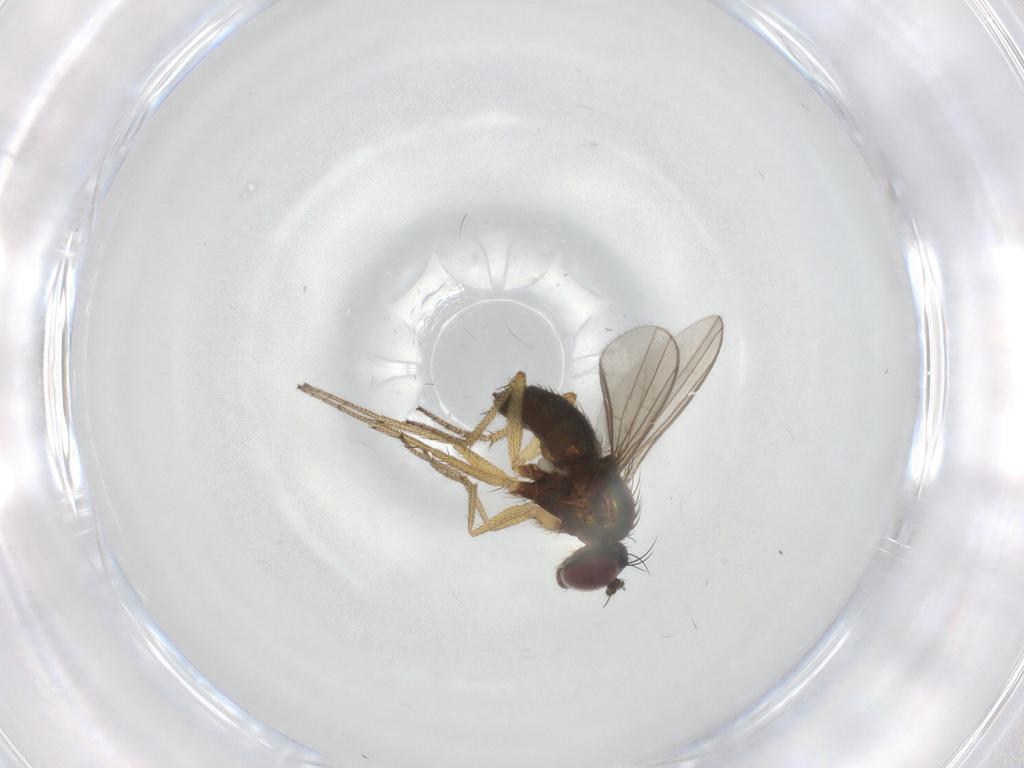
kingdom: Animalia
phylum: Arthropoda
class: Insecta
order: Diptera
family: Dolichopodidae
